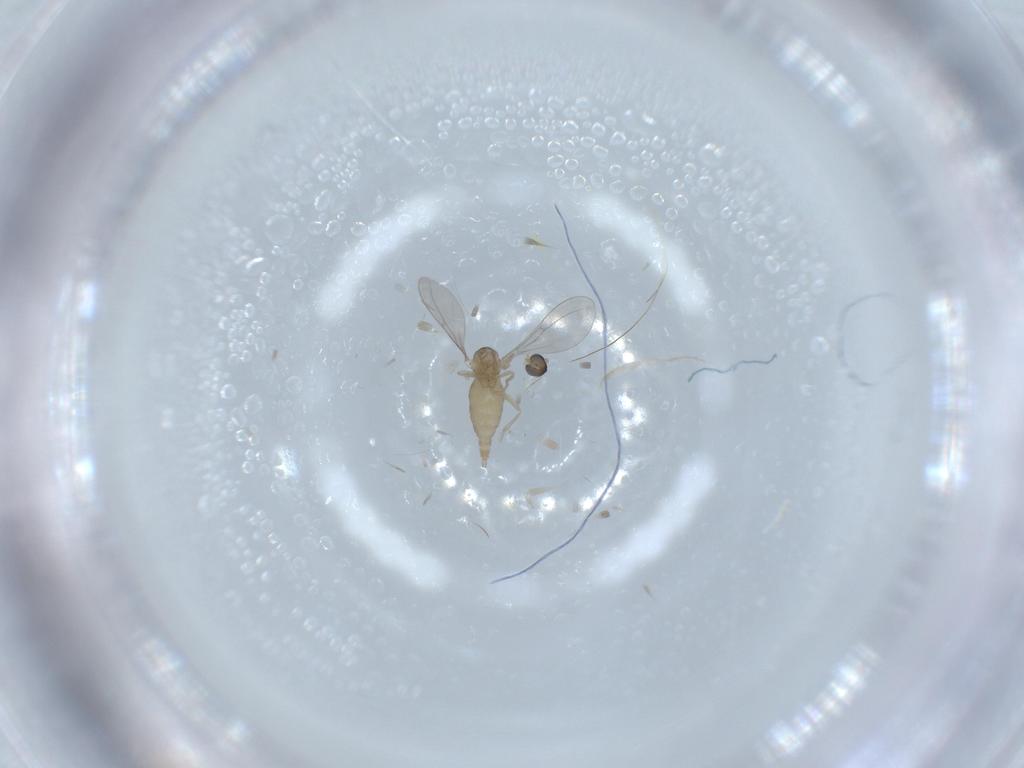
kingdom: Animalia
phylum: Arthropoda
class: Insecta
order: Diptera
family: Cecidomyiidae
